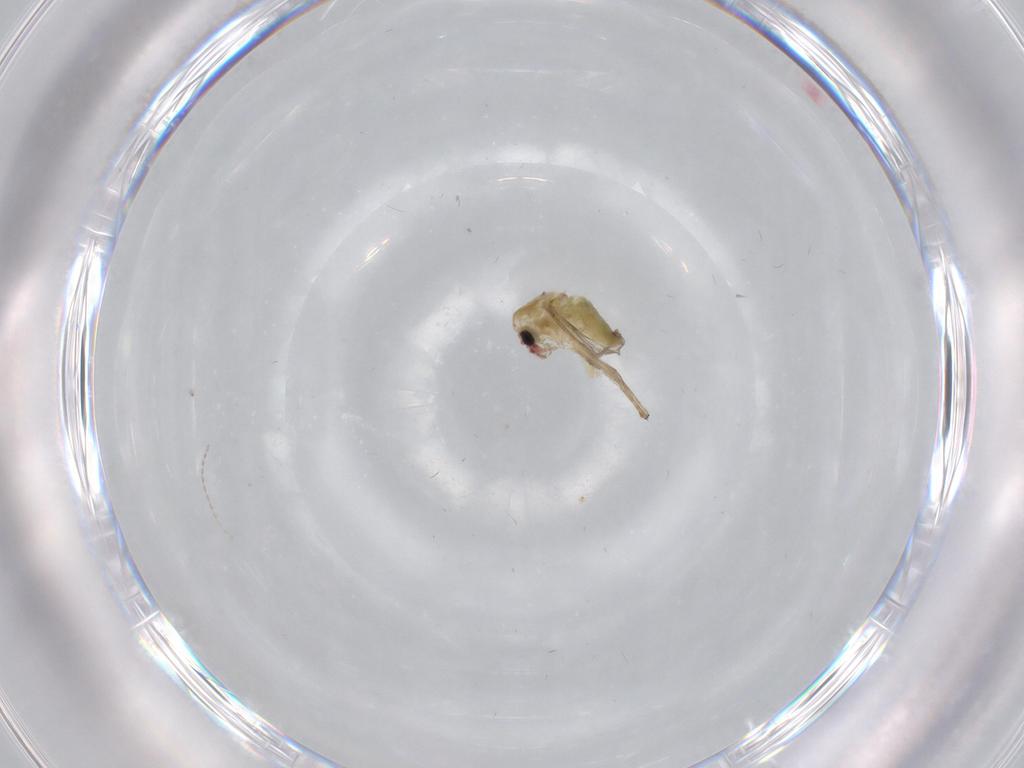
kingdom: Animalia
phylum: Arthropoda
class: Insecta
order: Diptera
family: Chironomidae
